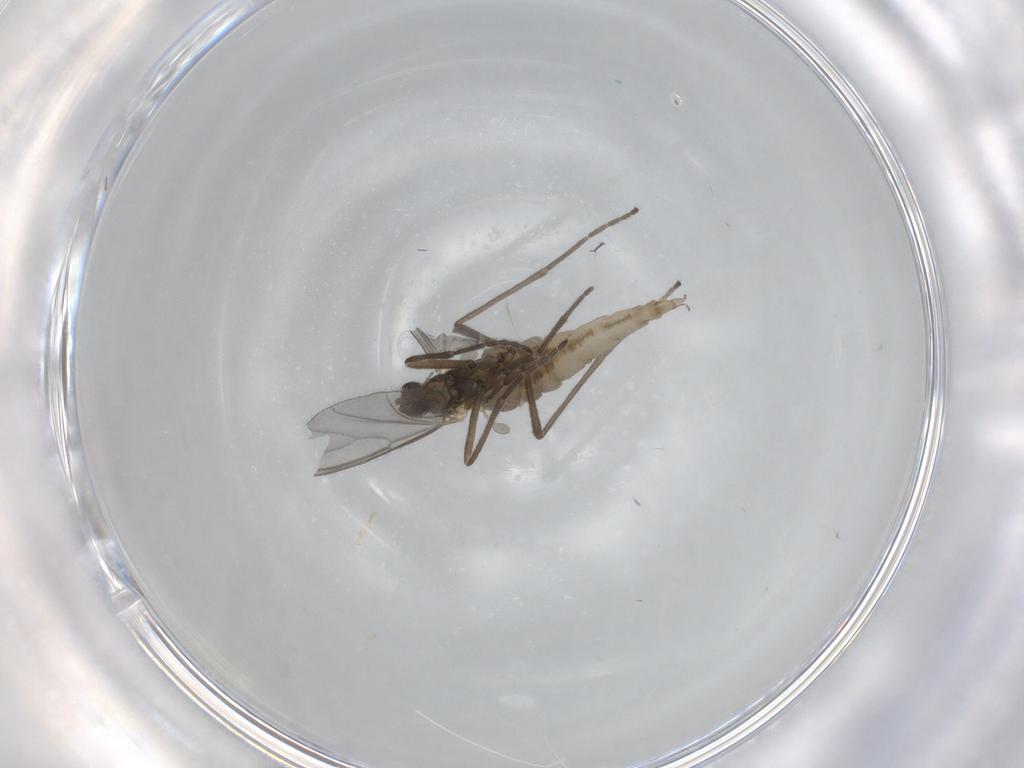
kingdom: Animalia
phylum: Arthropoda
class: Insecta
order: Diptera
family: Cecidomyiidae
